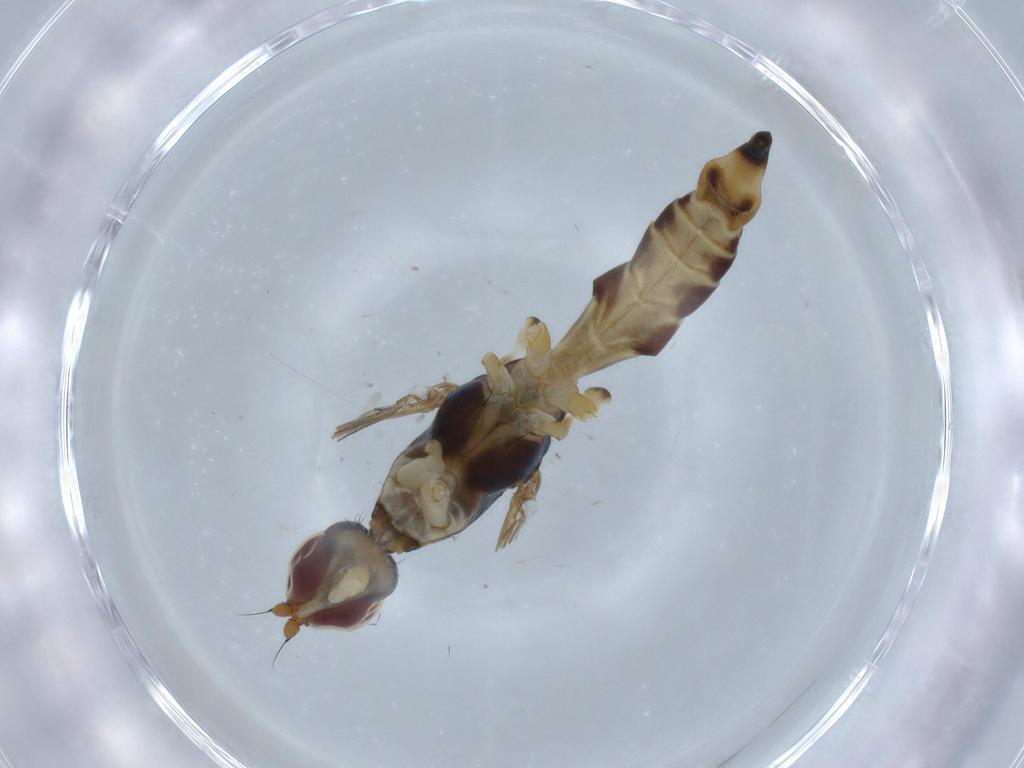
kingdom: Animalia
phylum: Arthropoda
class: Insecta
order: Diptera
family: Micropezidae
